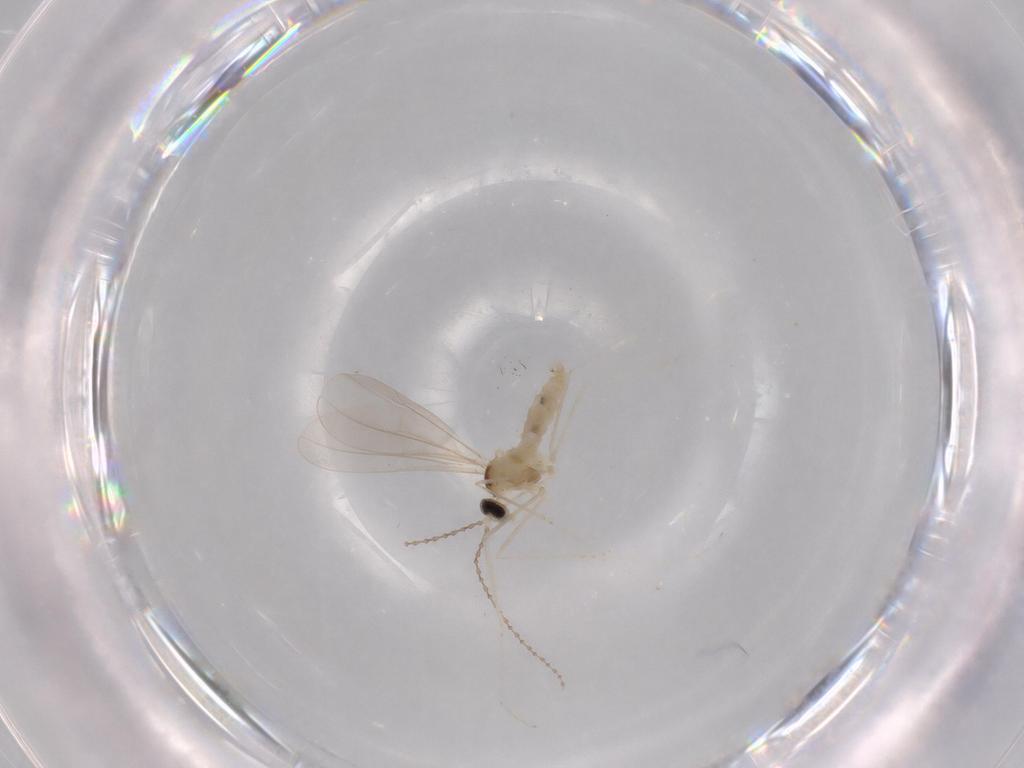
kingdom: Animalia
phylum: Arthropoda
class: Insecta
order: Diptera
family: Cecidomyiidae
